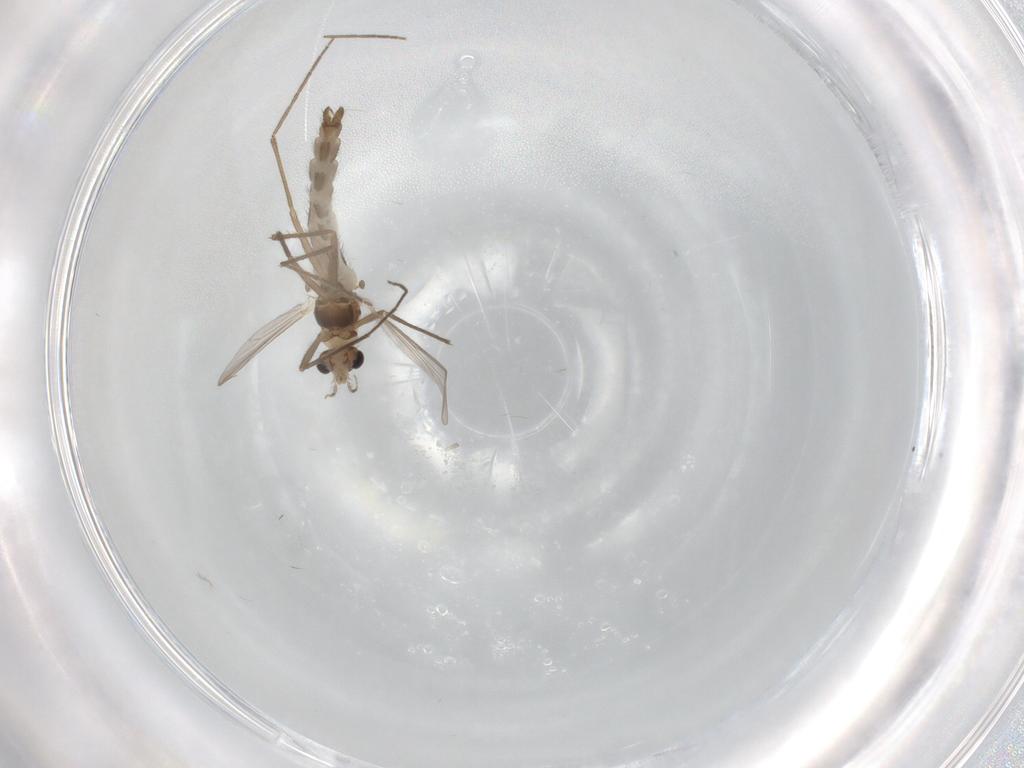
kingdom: Animalia
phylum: Arthropoda
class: Insecta
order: Diptera
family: Chironomidae
